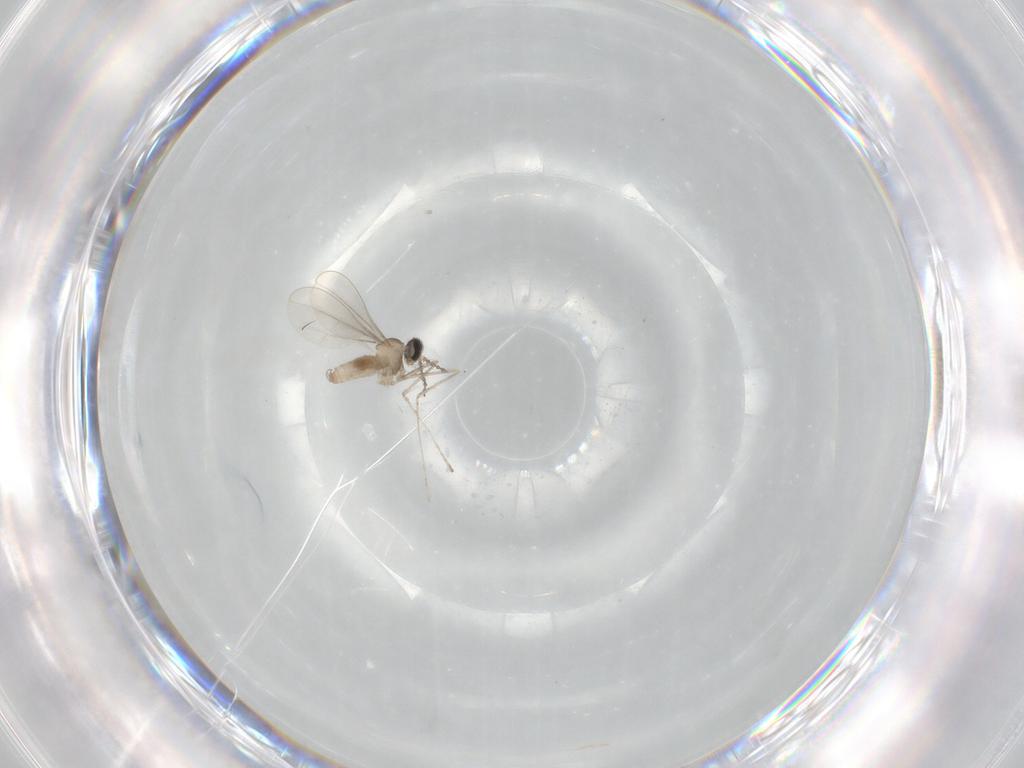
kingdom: Animalia
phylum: Arthropoda
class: Insecta
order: Diptera
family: Cecidomyiidae
